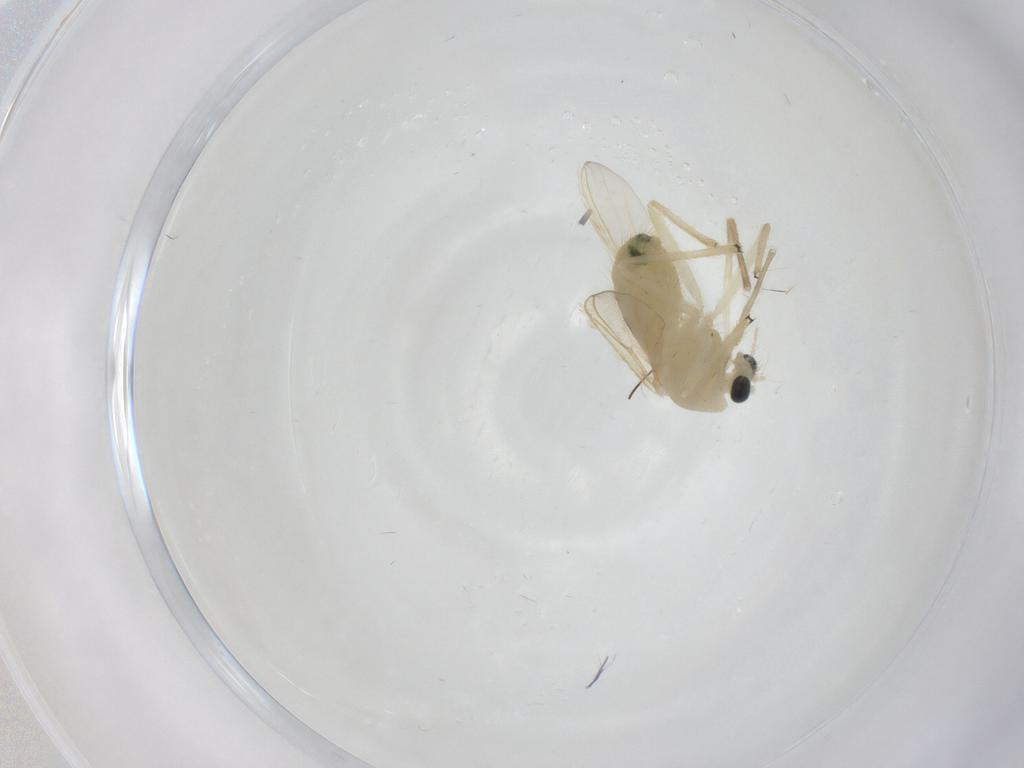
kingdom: Animalia
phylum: Arthropoda
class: Insecta
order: Diptera
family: Chironomidae
